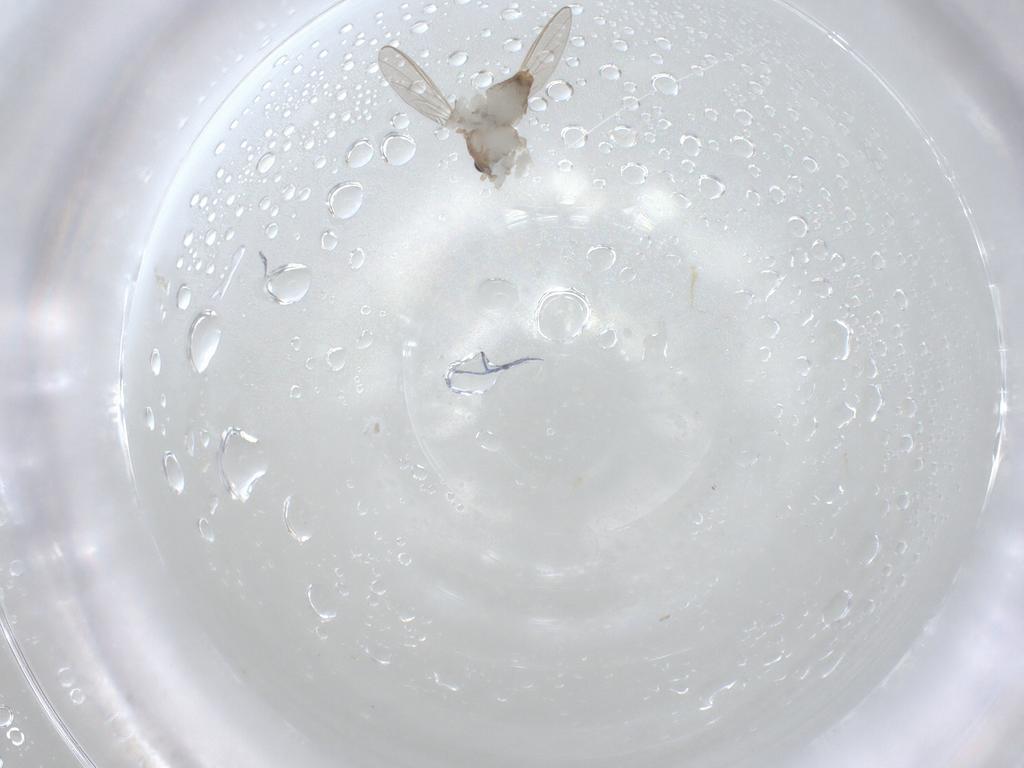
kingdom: Animalia
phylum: Arthropoda
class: Insecta
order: Diptera
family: Chironomidae
